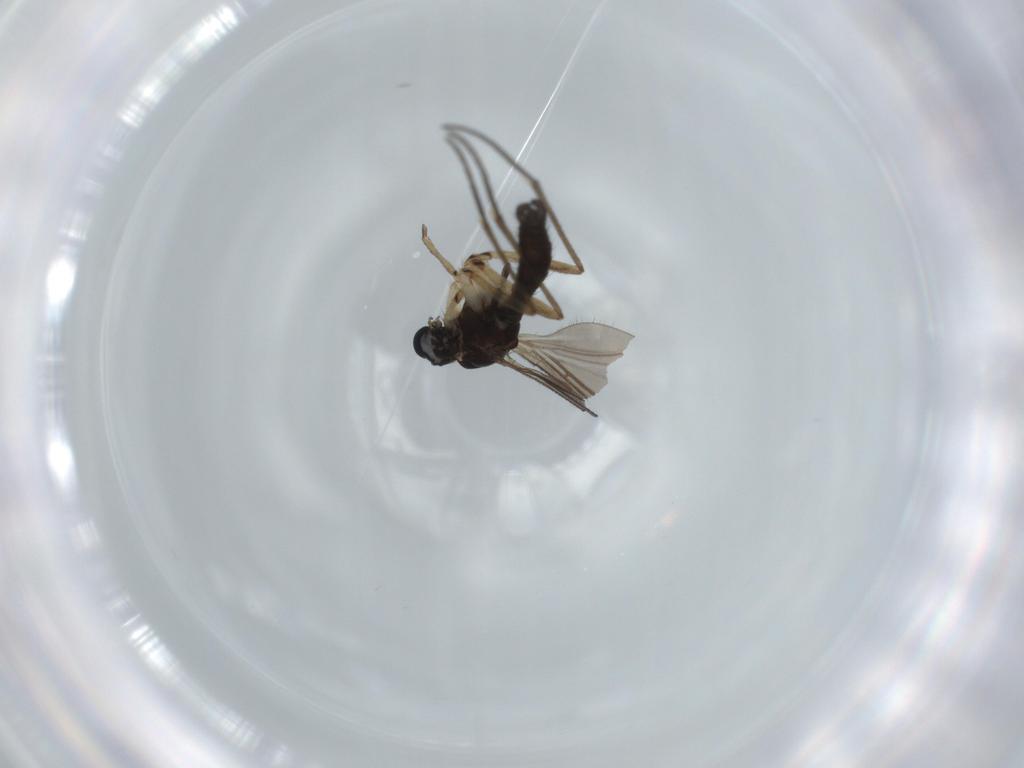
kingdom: Animalia
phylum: Arthropoda
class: Insecta
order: Diptera
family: Sciaridae
